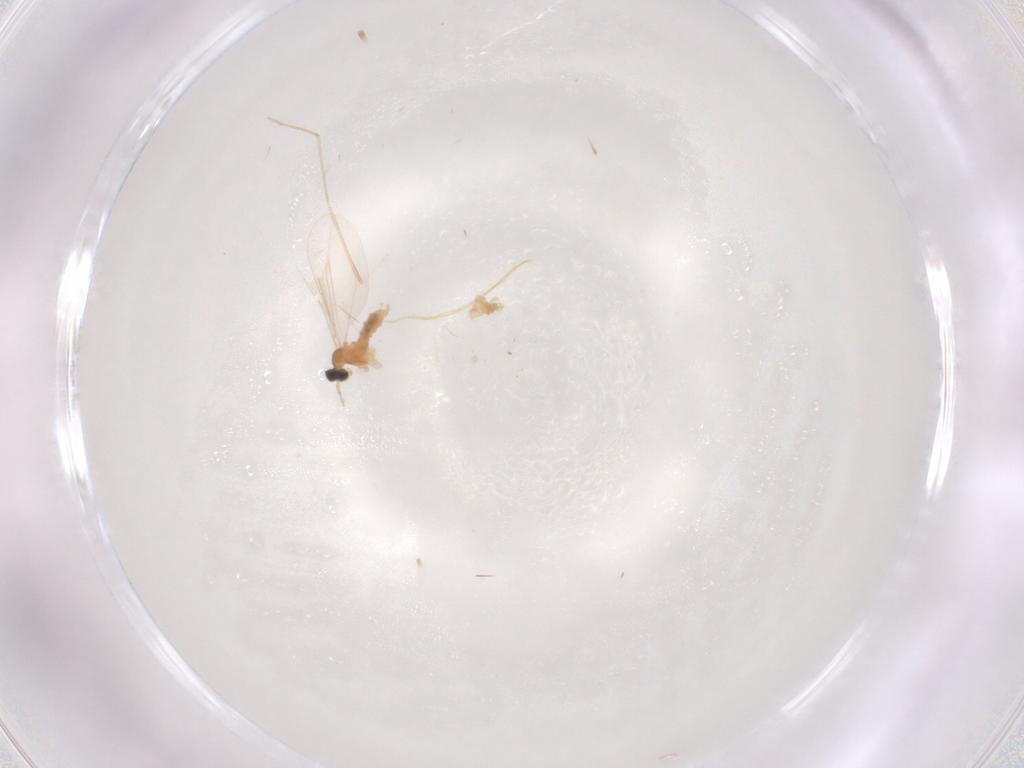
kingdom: Animalia
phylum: Arthropoda
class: Insecta
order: Diptera
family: Cecidomyiidae
